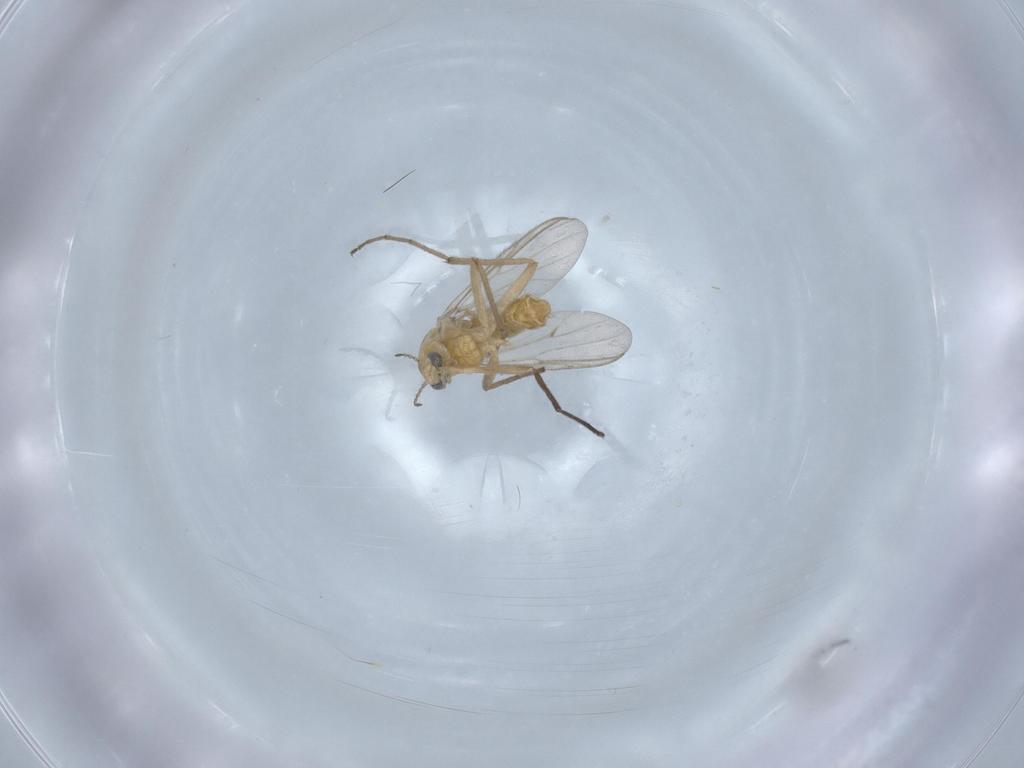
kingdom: Animalia
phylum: Arthropoda
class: Insecta
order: Diptera
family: Chironomidae
